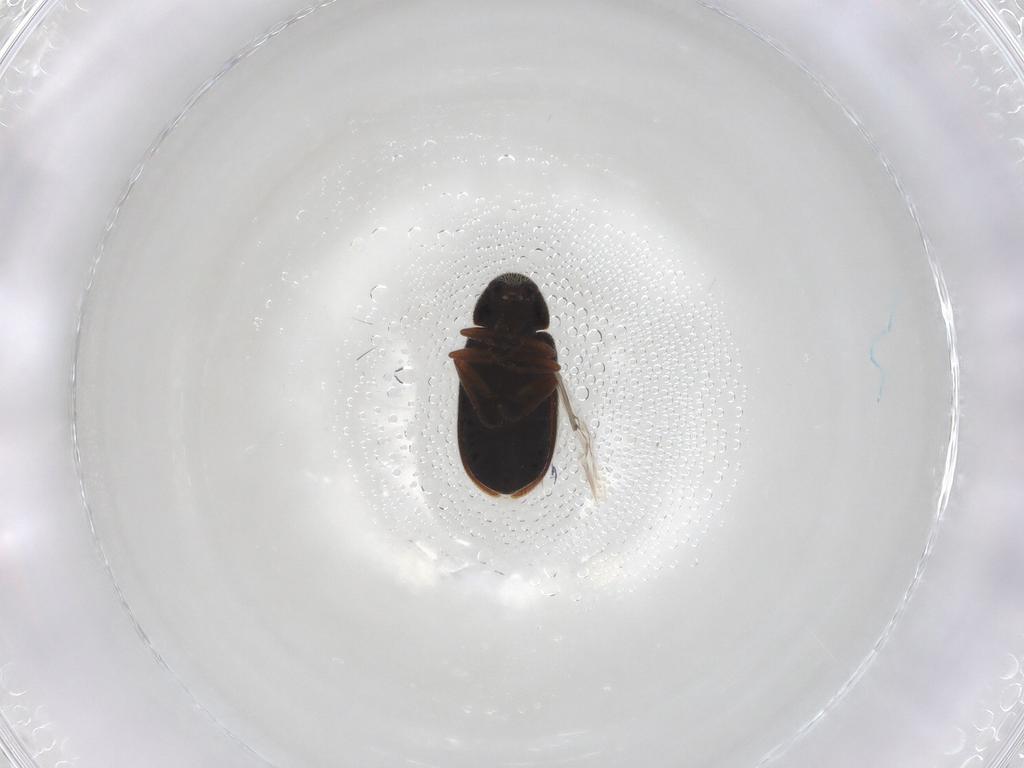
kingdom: Animalia
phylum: Arthropoda
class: Insecta
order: Coleoptera
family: Rhadalidae
